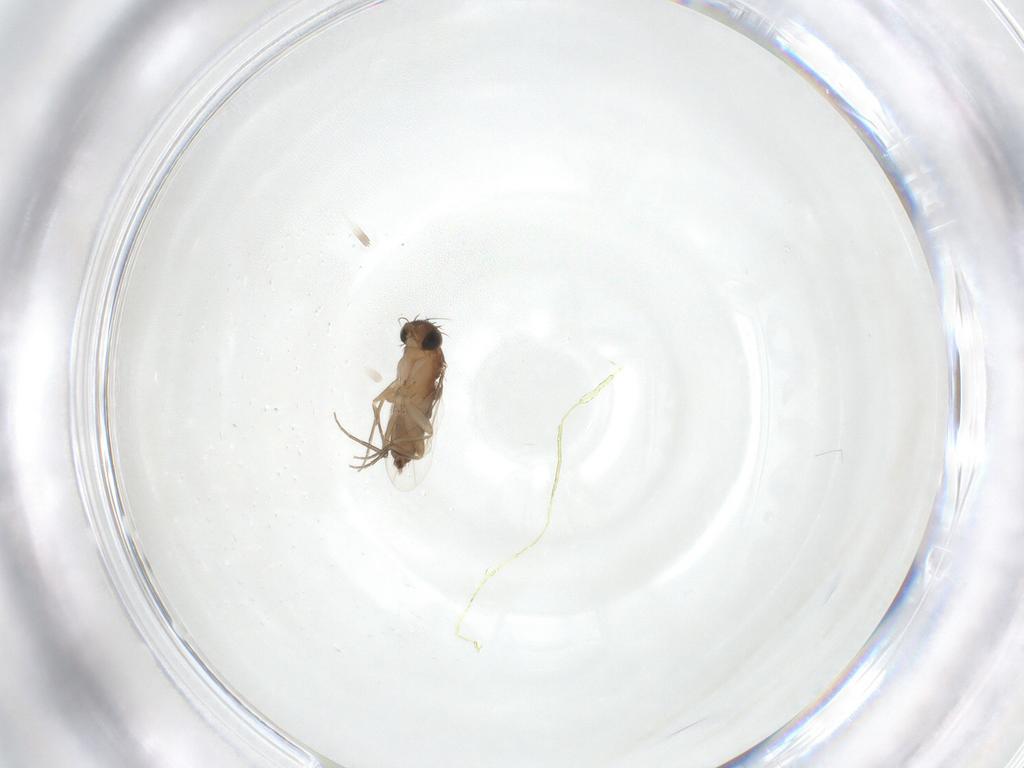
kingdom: Animalia
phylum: Arthropoda
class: Insecta
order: Diptera
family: Phoridae
